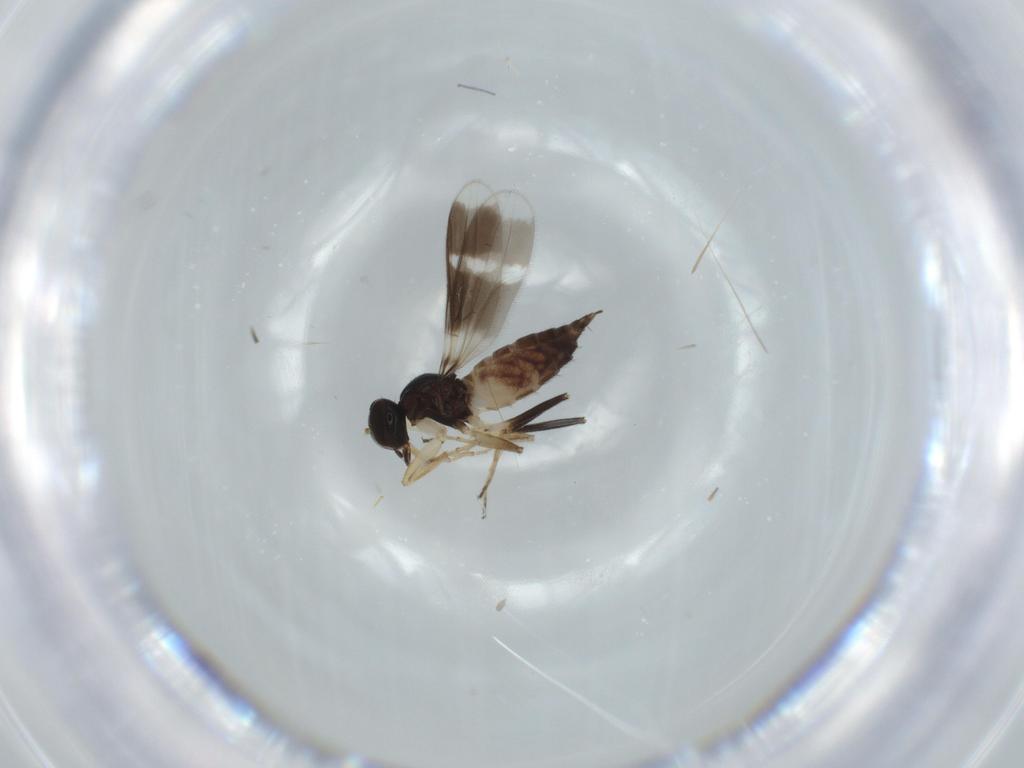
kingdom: Animalia
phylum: Arthropoda
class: Insecta
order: Diptera
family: Hybotidae
